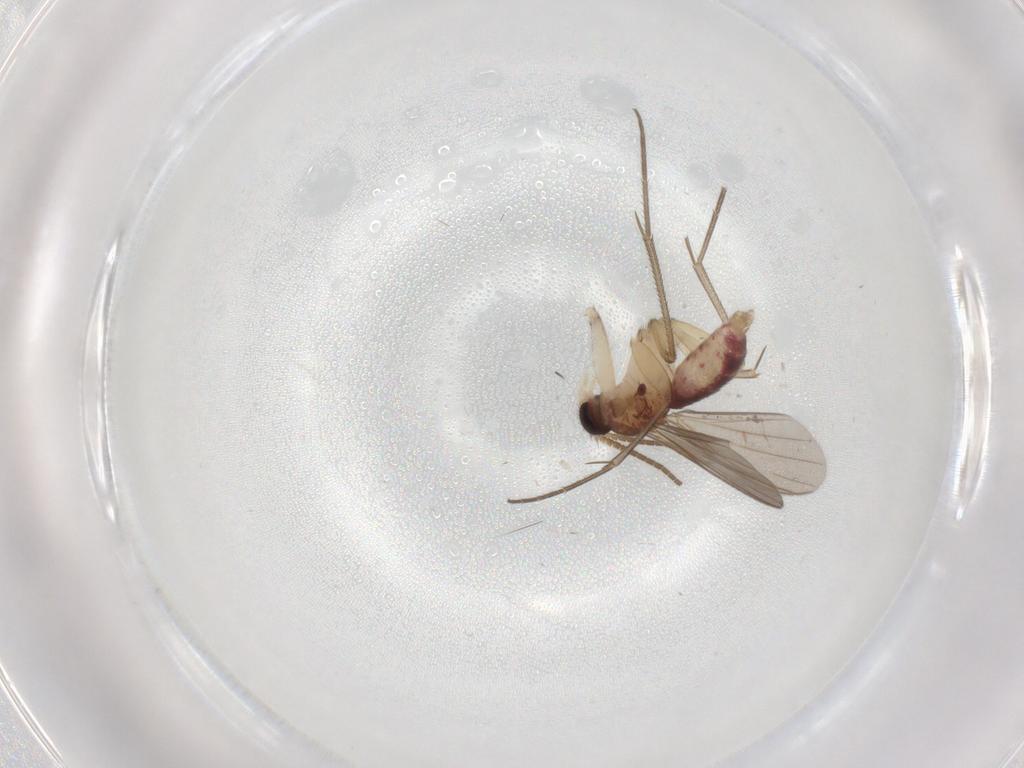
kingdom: Animalia
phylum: Arthropoda
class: Insecta
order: Diptera
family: Mycetophilidae
